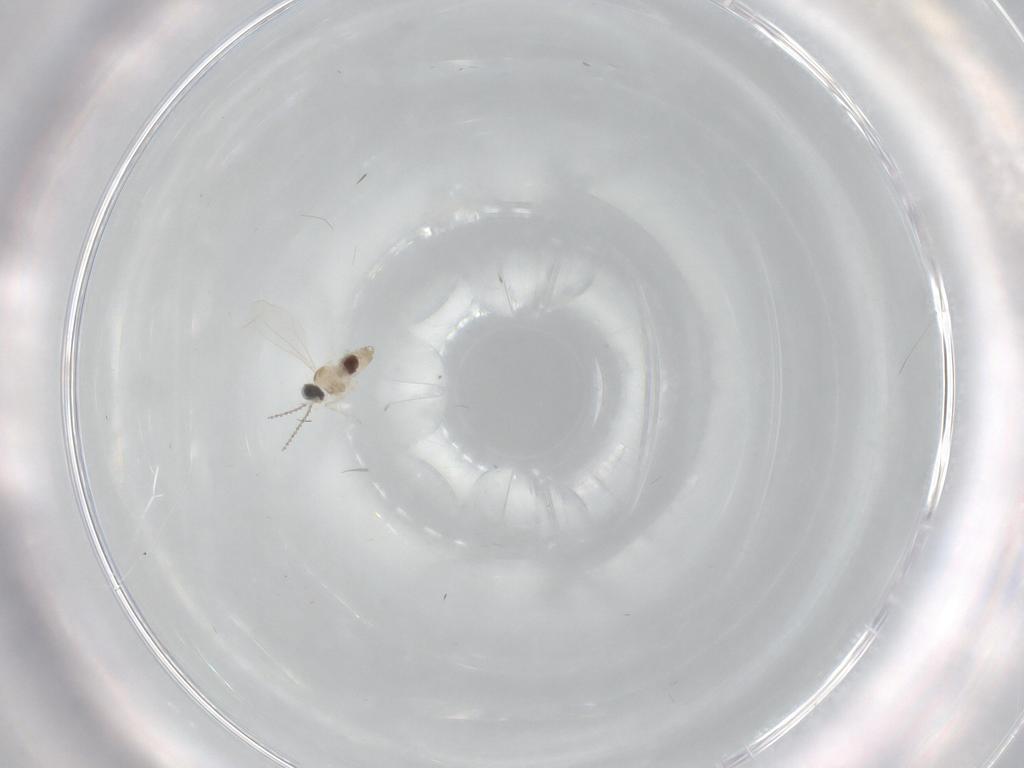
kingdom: Animalia
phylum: Arthropoda
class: Insecta
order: Diptera
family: Cecidomyiidae
